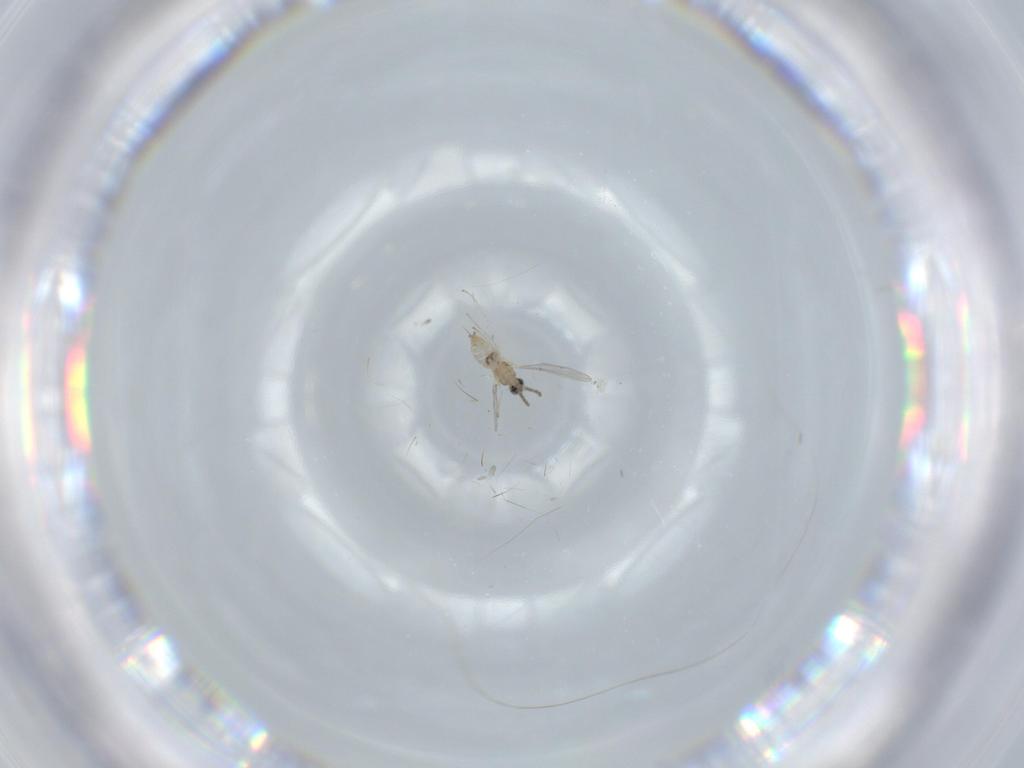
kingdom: Animalia
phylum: Arthropoda
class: Insecta
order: Diptera
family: Cecidomyiidae
